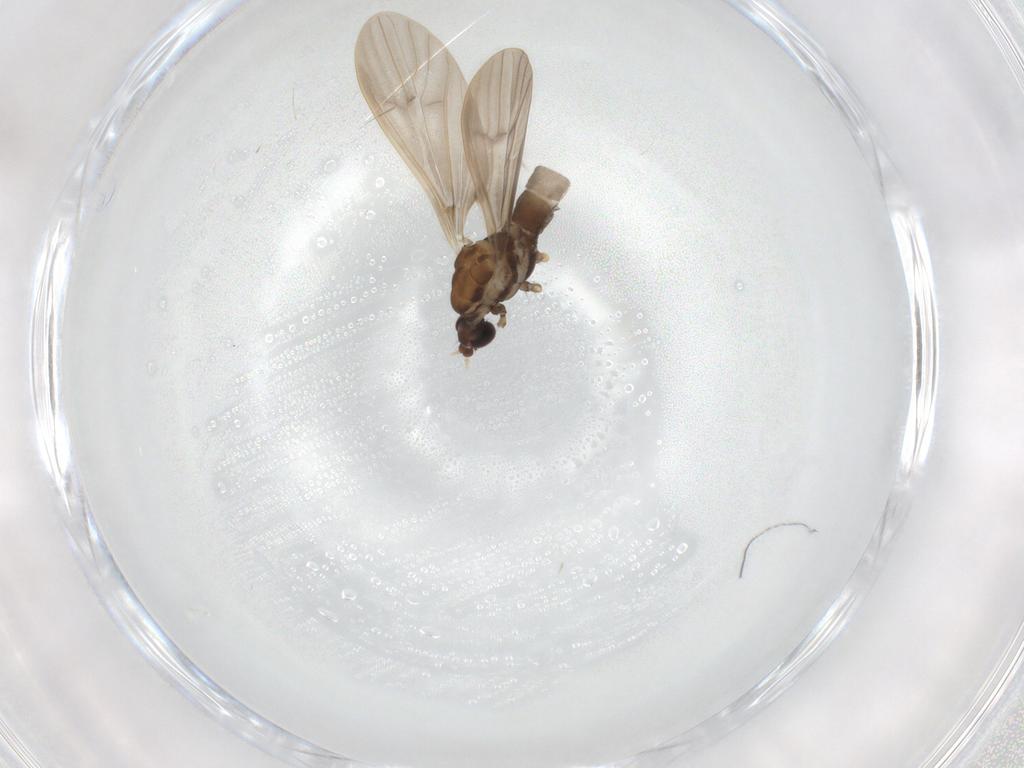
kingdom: Animalia
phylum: Arthropoda
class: Insecta
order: Diptera
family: Limoniidae
